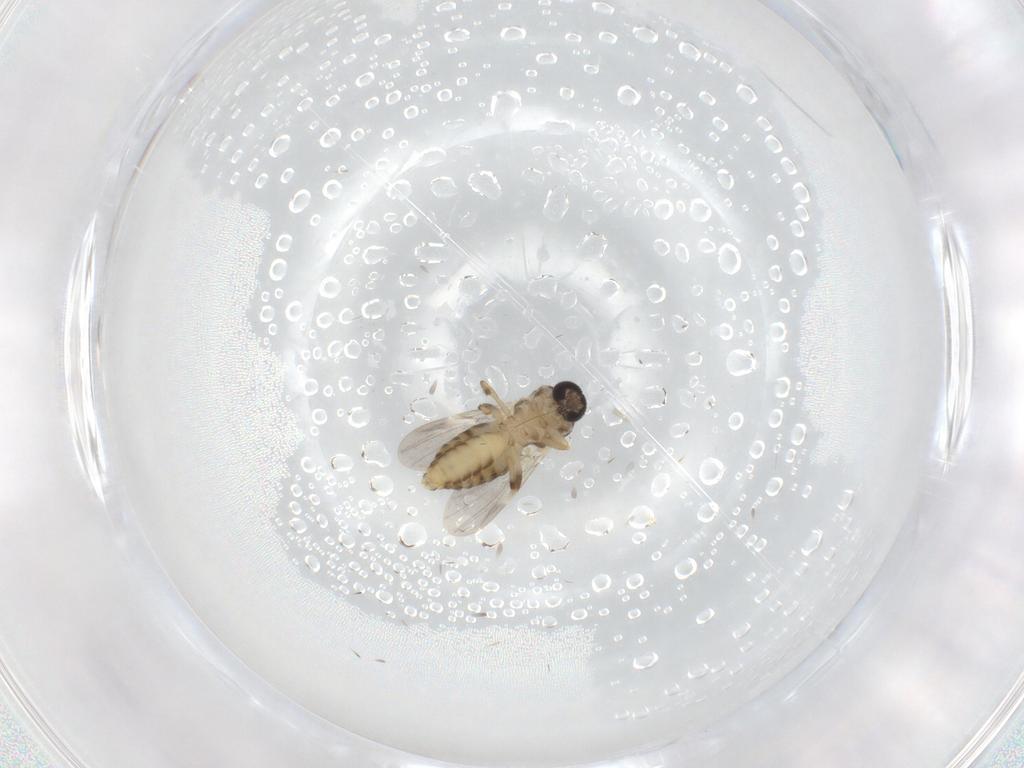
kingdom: Animalia
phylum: Arthropoda
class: Insecta
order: Diptera
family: Ceratopogonidae
